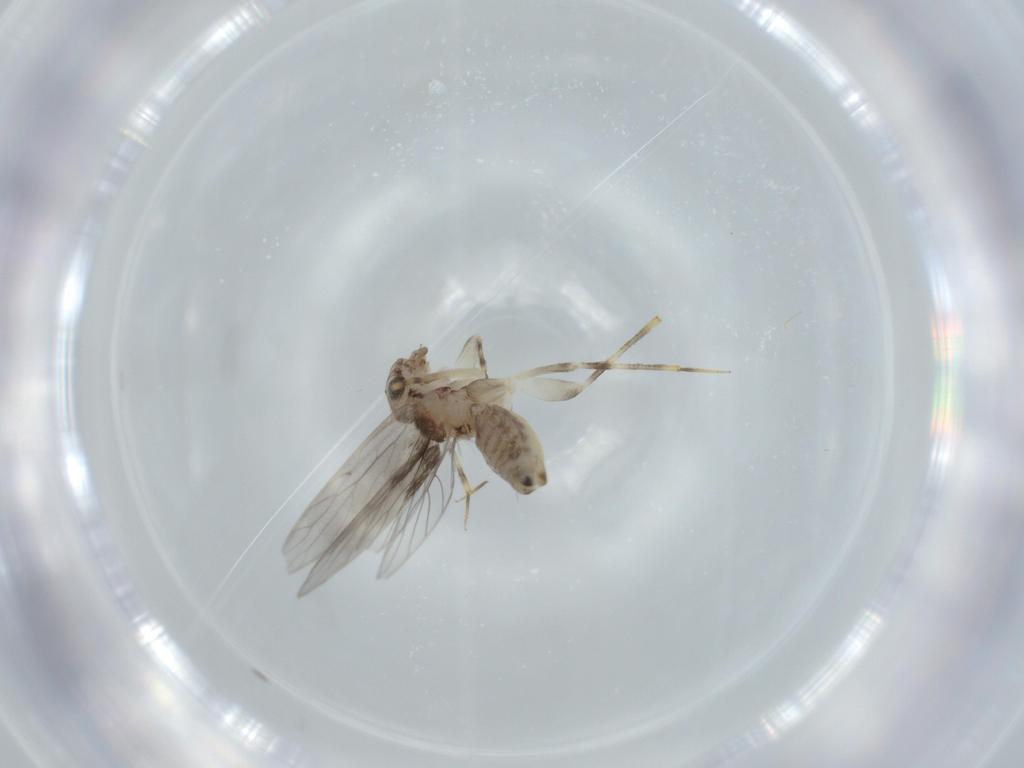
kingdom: Animalia
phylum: Arthropoda
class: Insecta
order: Psocodea
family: Lepidopsocidae
